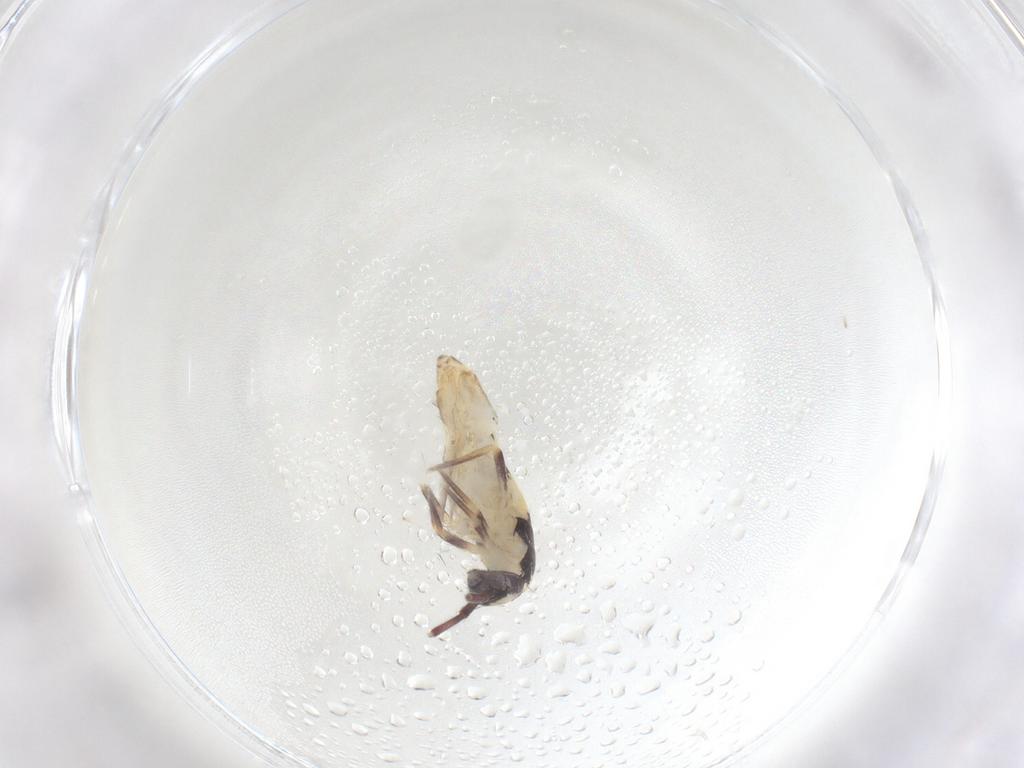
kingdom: Animalia
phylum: Arthropoda
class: Collembola
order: Entomobryomorpha
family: Entomobryidae
